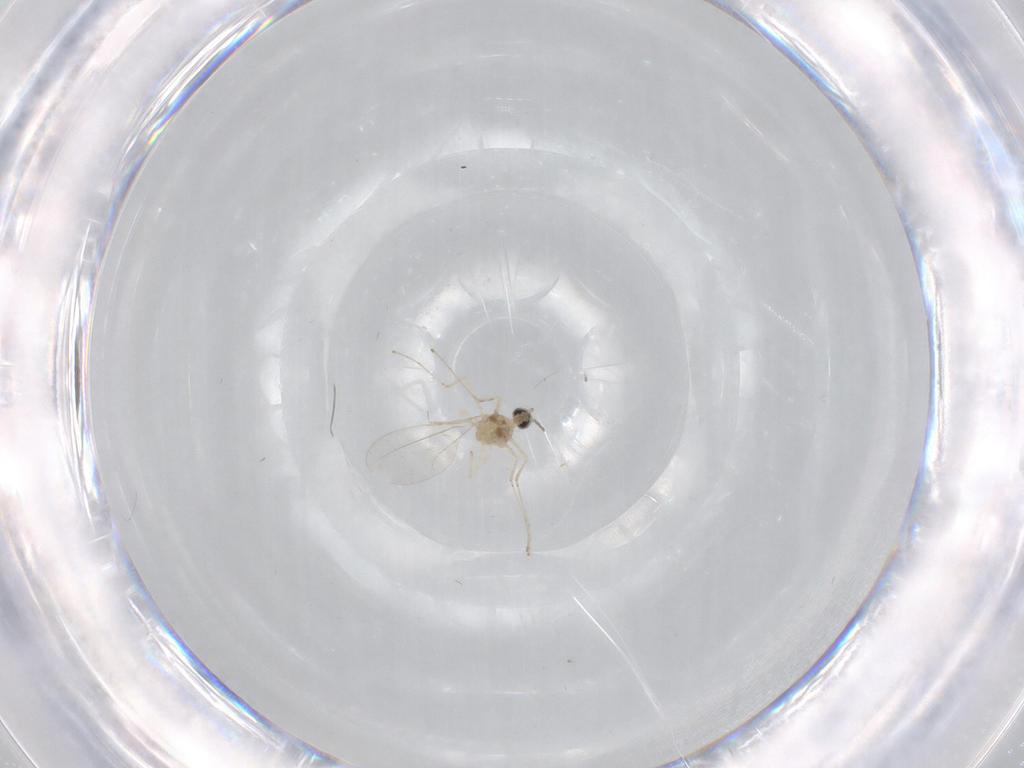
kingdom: Animalia
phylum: Arthropoda
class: Insecta
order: Diptera
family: Cecidomyiidae
